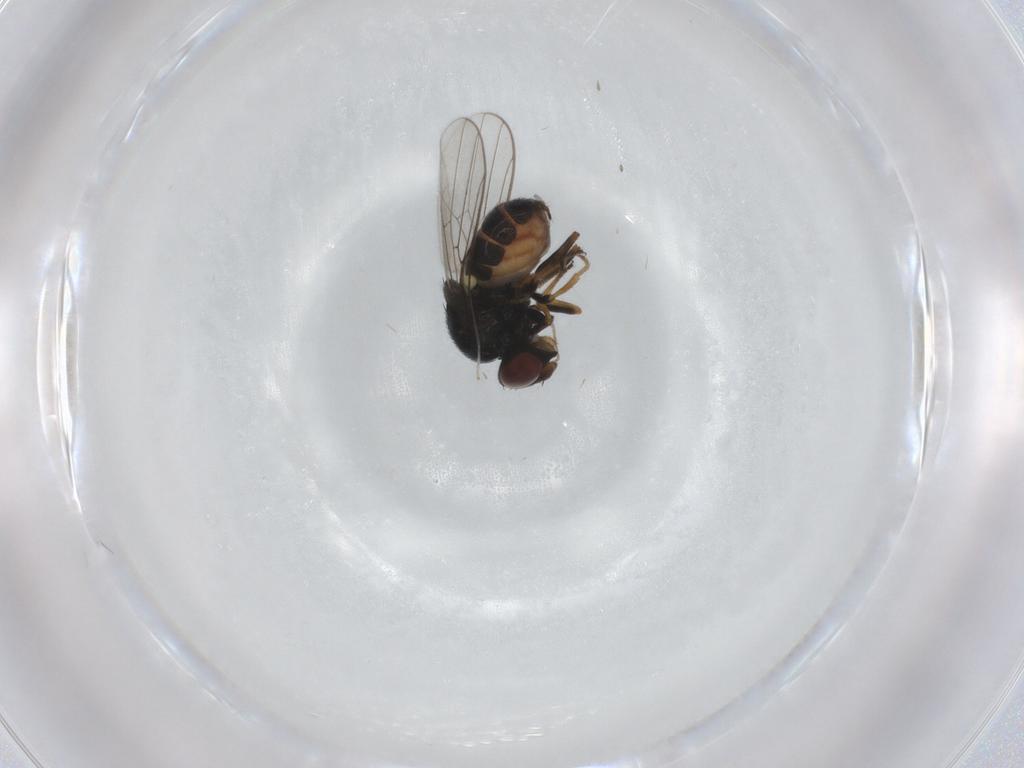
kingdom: Animalia
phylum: Arthropoda
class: Insecta
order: Diptera
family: Chloropidae
